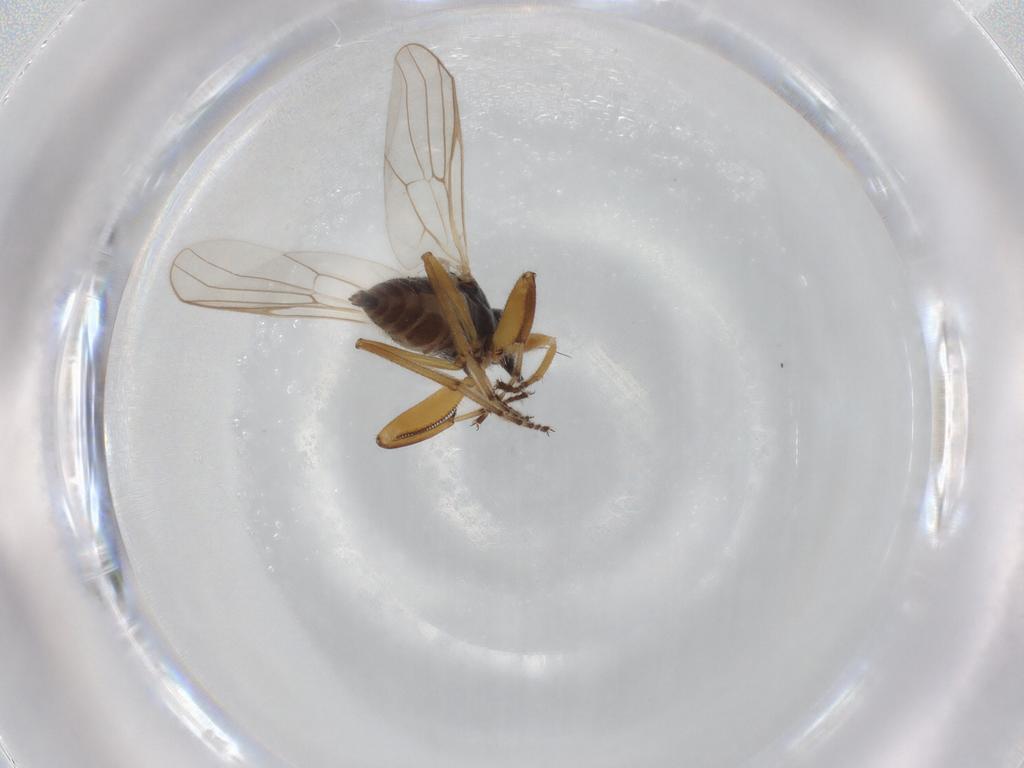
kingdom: Animalia
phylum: Arthropoda
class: Insecta
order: Diptera
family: Hybotidae
